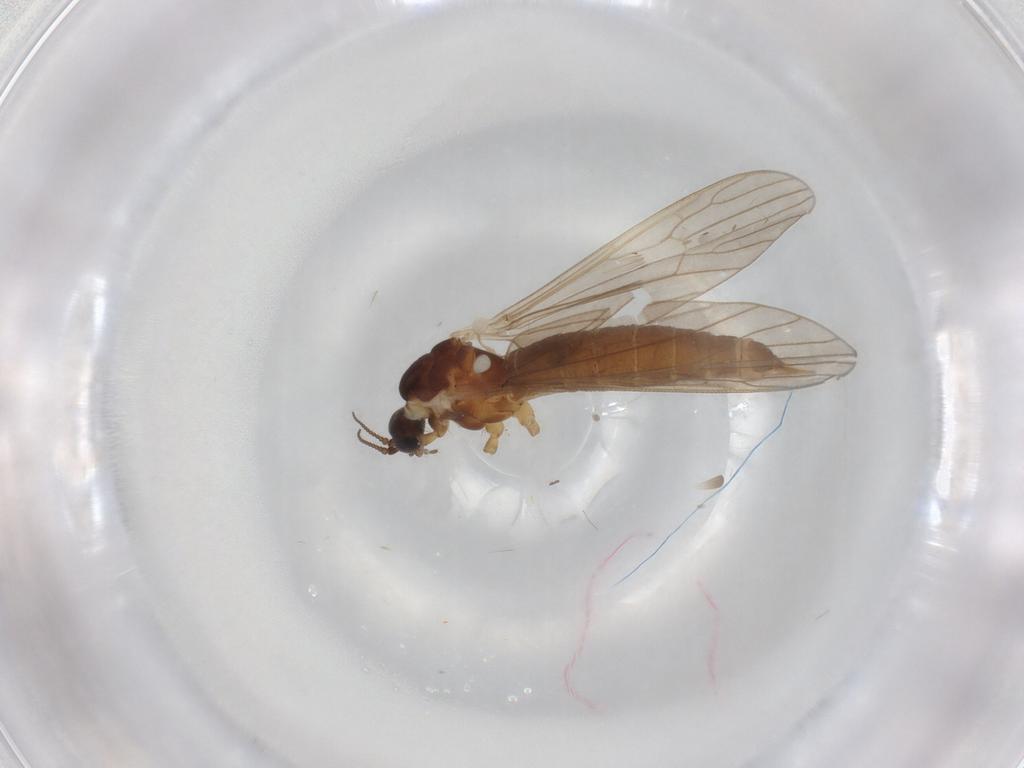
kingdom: Animalia
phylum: Arthropoda
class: Insecta
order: Diptera
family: Limoniidae
